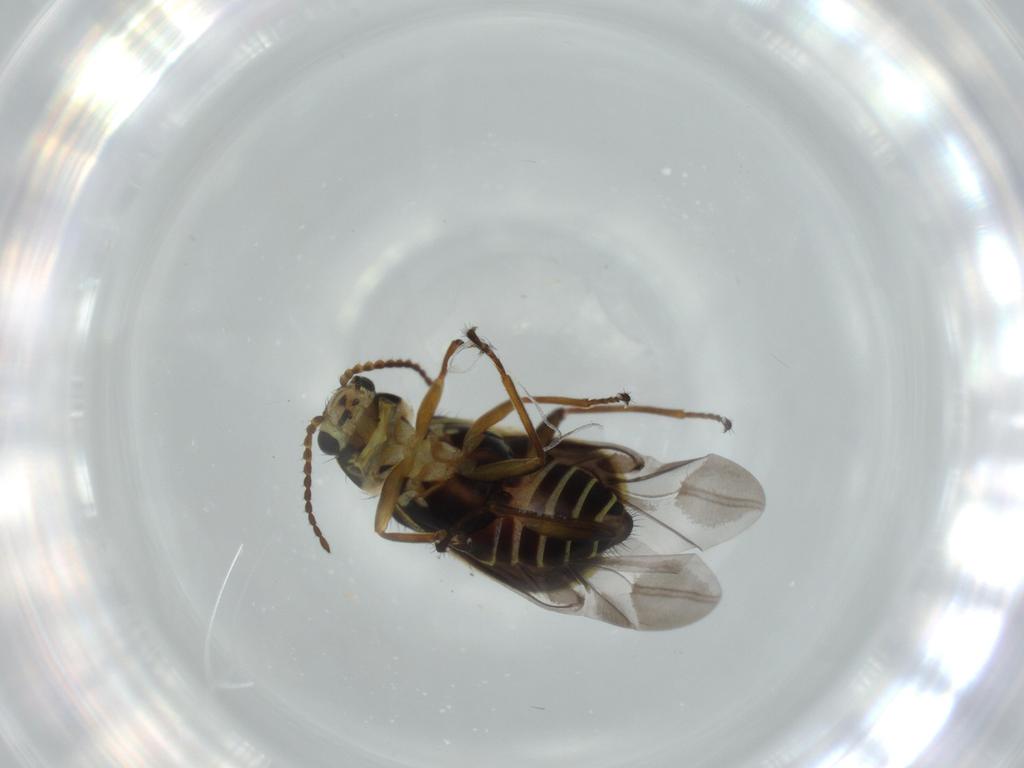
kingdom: Animalia
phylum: Arthropoda
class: Insecta
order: Coleoptera
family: Melyridae
